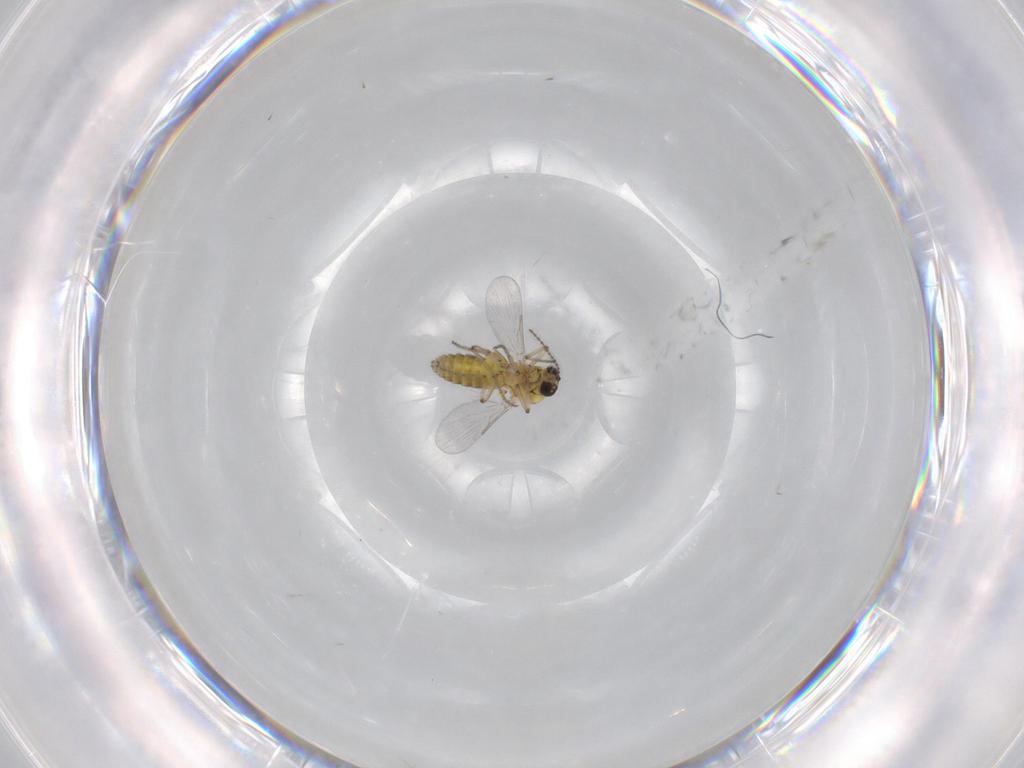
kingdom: Animalia
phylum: Arthropoda
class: Insecta
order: Diptera
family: Ceratopogonidae
